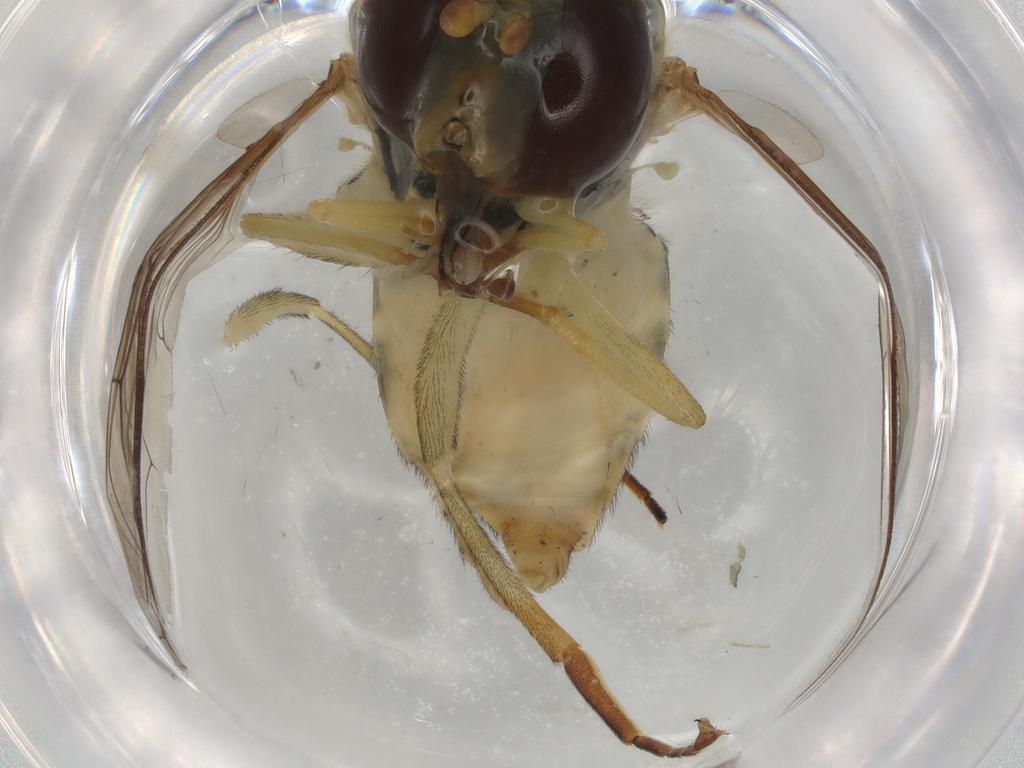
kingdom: Animalia
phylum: Arthropoda
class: Insecta
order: Diptera
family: Syrphidae
